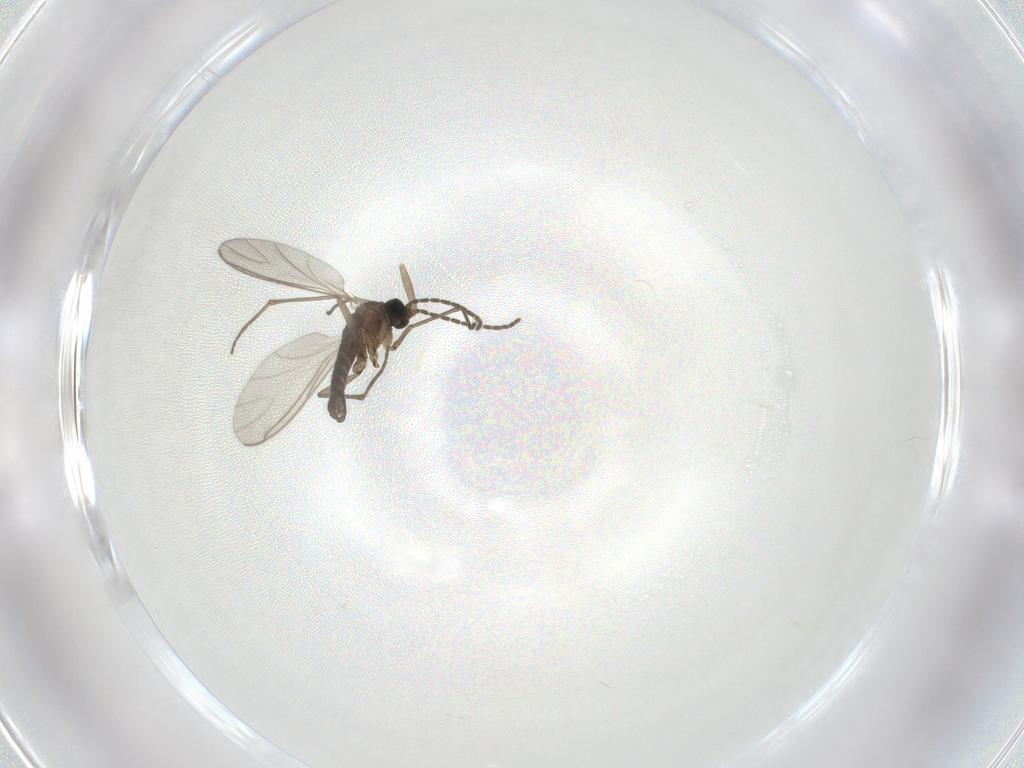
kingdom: Animalia
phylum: Arthropoda
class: Insecta
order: Diptera
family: Sciaridae
